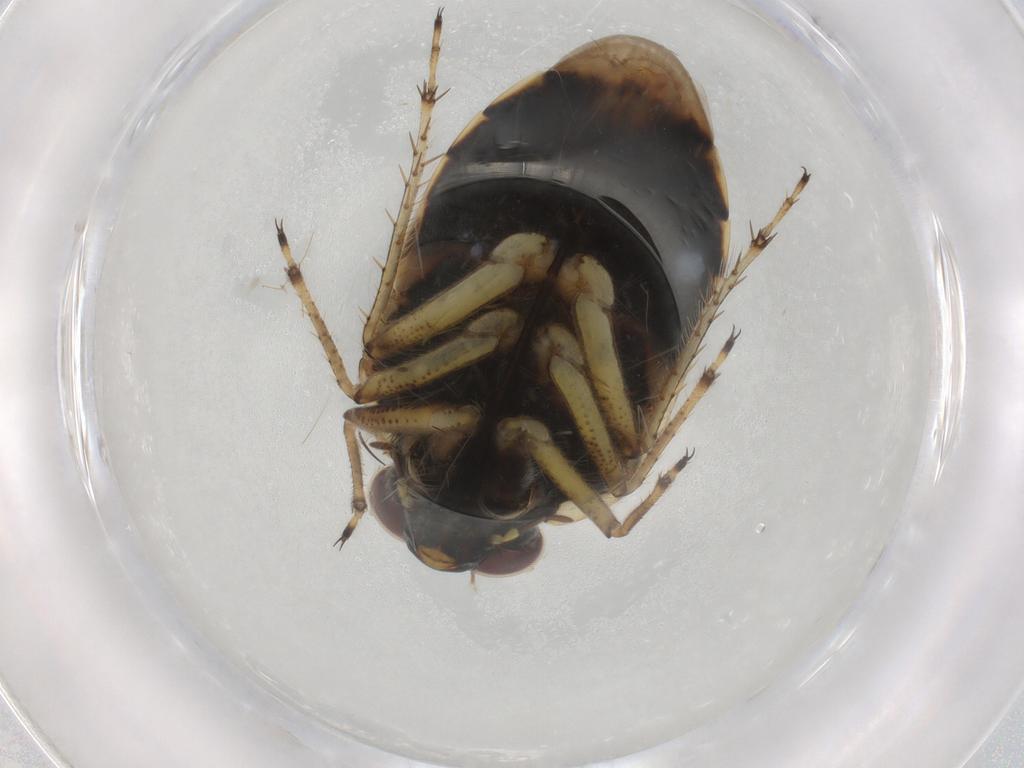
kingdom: Animalia
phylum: Arthropoda
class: Insecta
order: Hemiptera
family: Ochteridae
